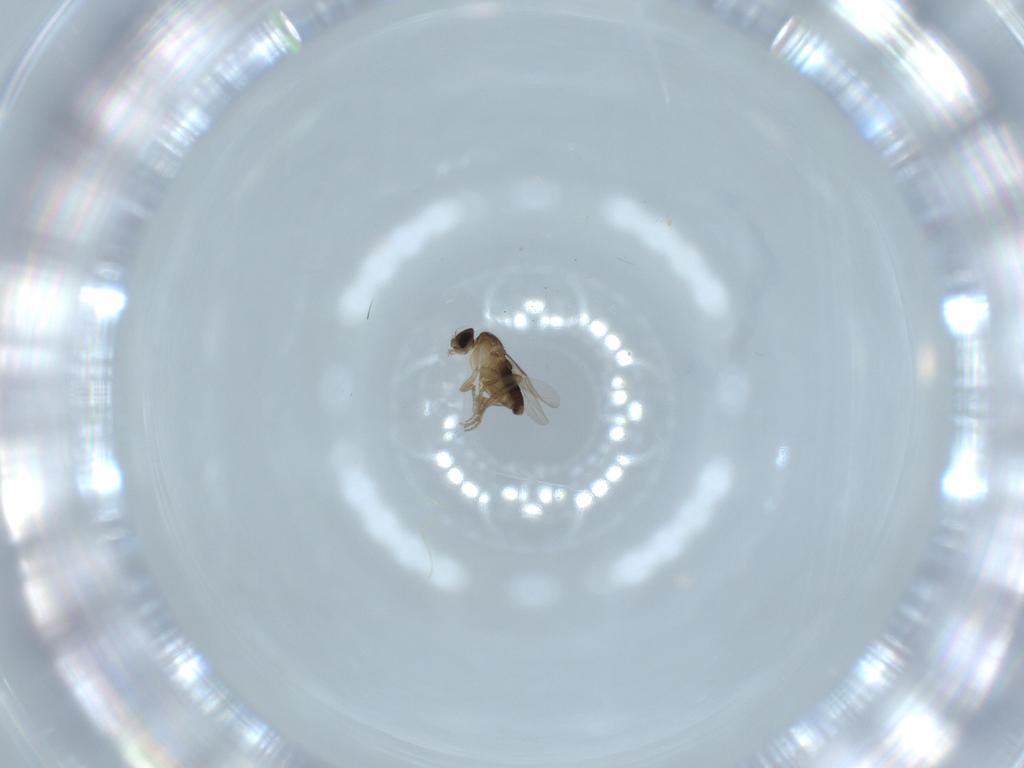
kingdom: Animalia
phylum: Arthropoda
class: Insecta
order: Diptera
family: Phoridae
